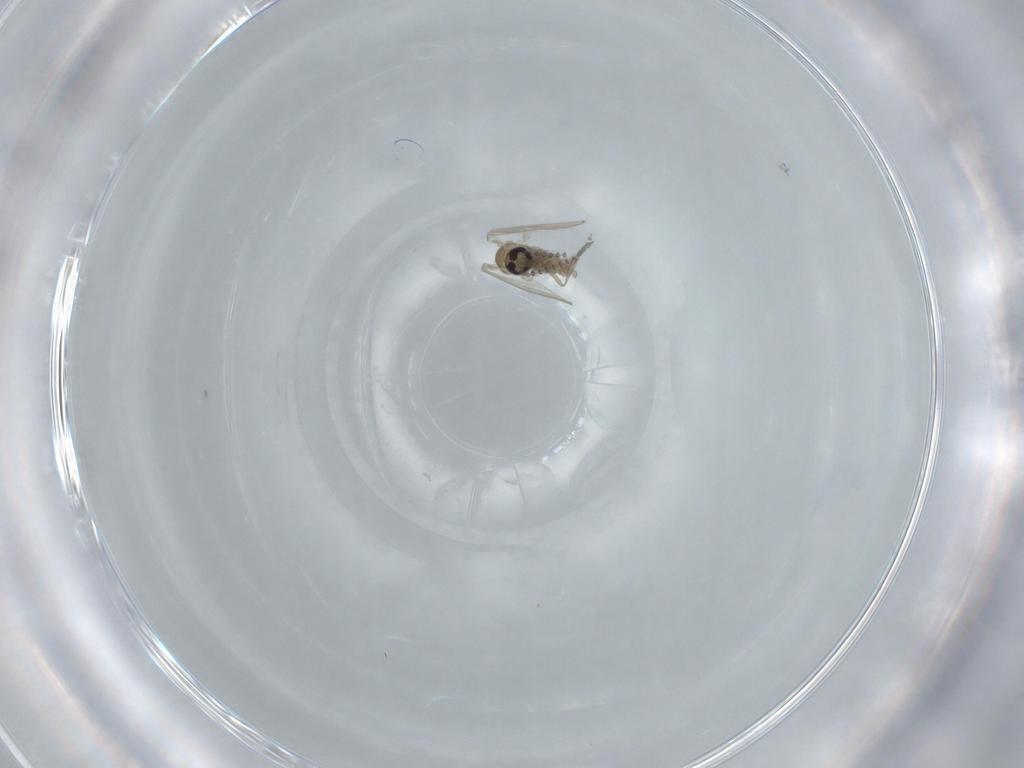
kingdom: Animalia
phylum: Arthropoda
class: Insecta
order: Diptera
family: Psychodidae
